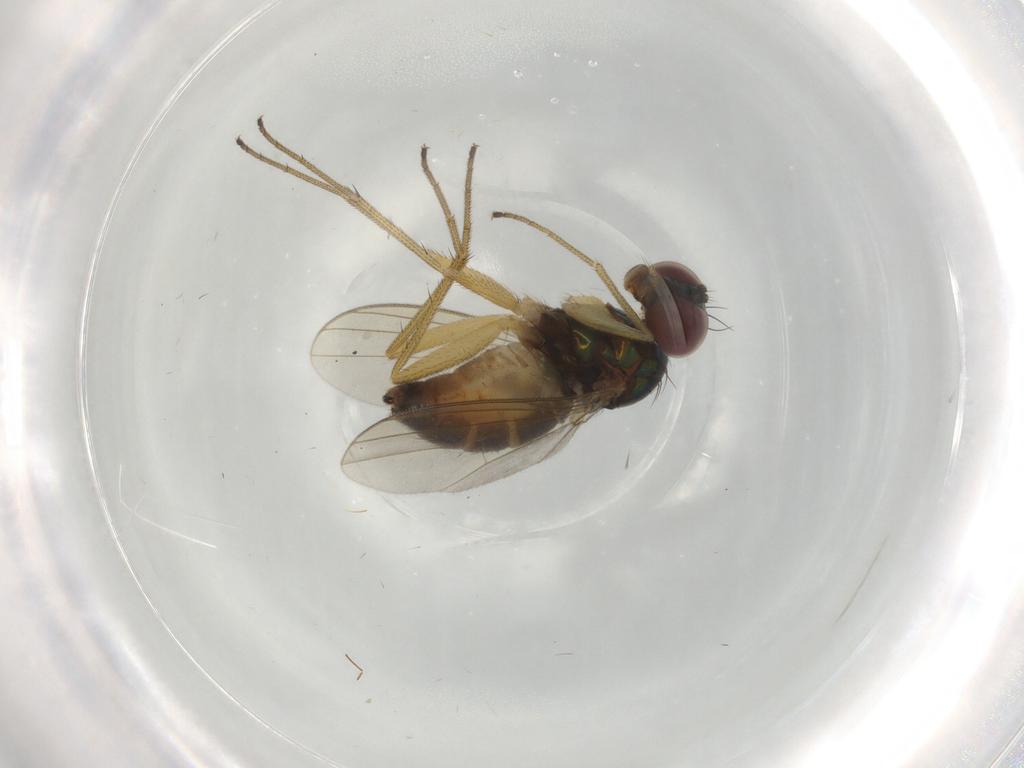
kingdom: Animalia
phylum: Arthropoda
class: Insecta
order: Diptera
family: Dolichopodidae
